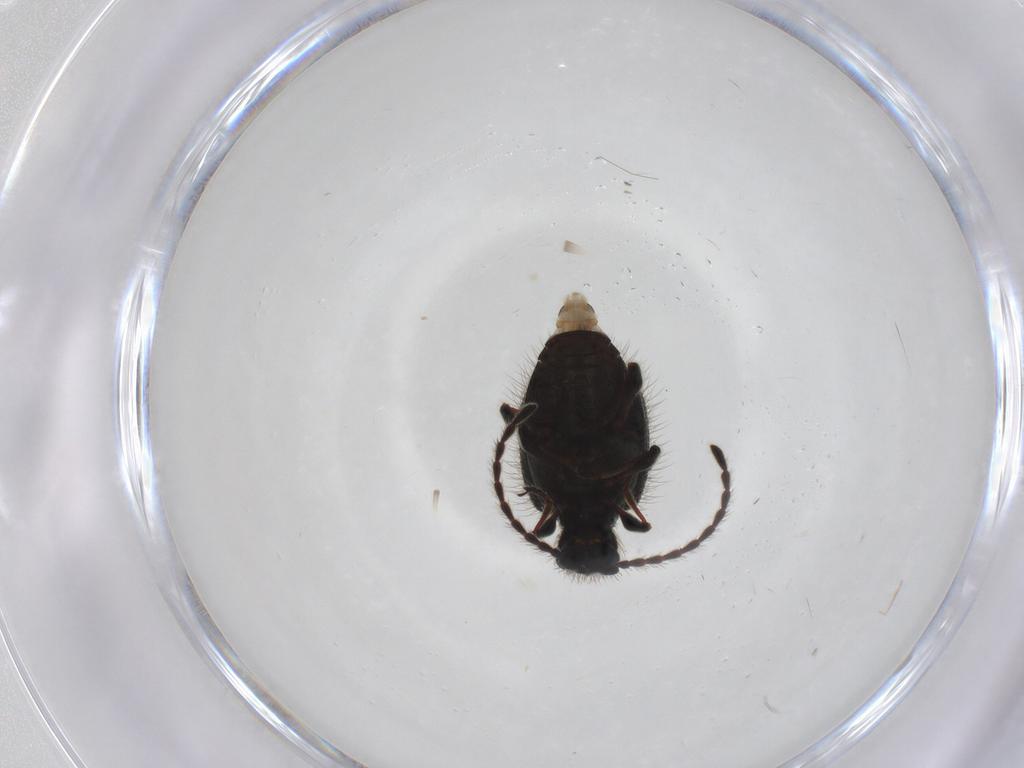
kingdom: Animalia
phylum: Arthropoda
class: Insecta
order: Coleoptera
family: Ptinidae
